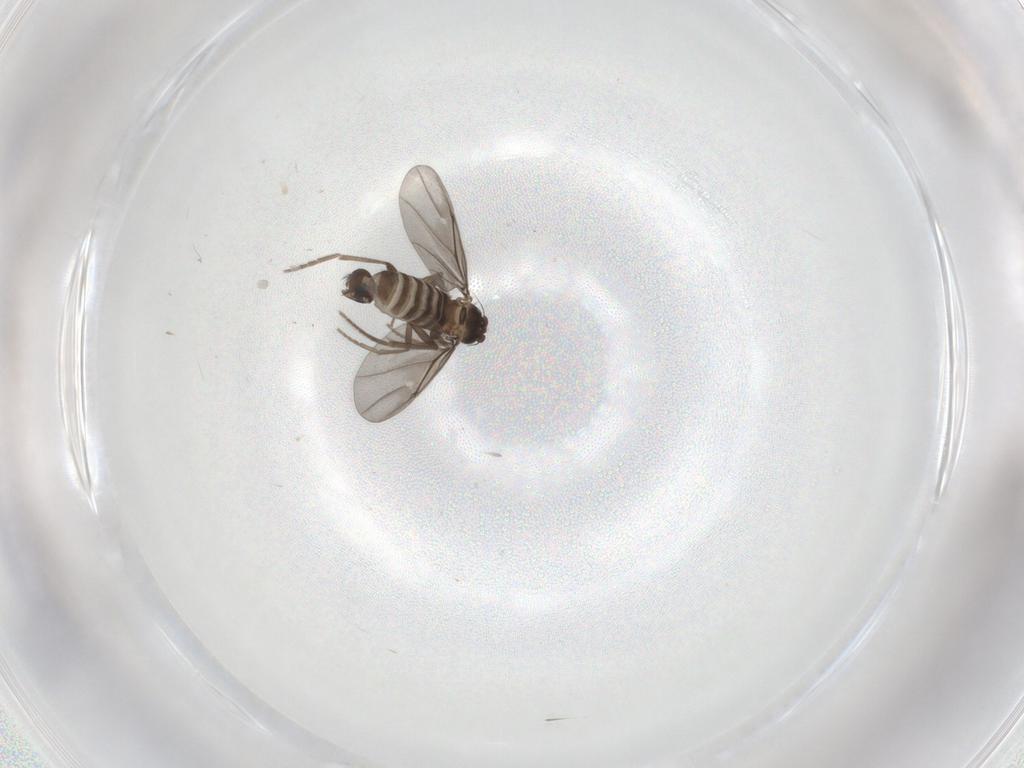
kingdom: Animalia
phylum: Arthropoda
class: Insecta
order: Diptera
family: Phoridae
